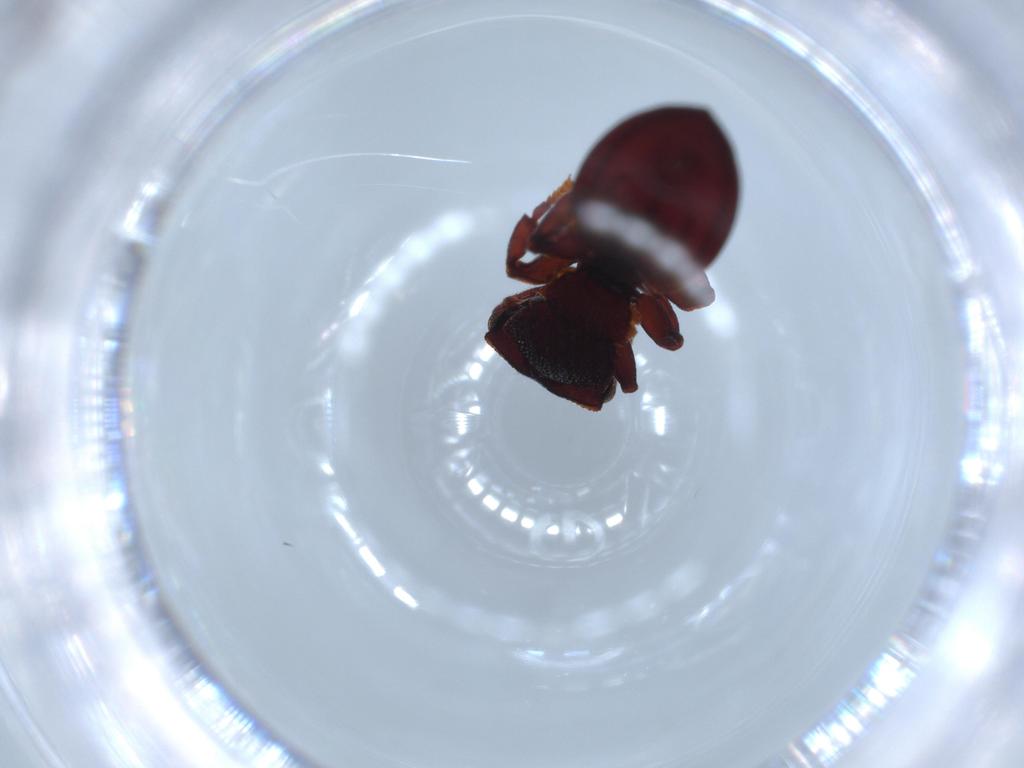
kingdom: Animalia
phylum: Arthropoda
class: Insecta
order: Hymenoptera
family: Formicidae
